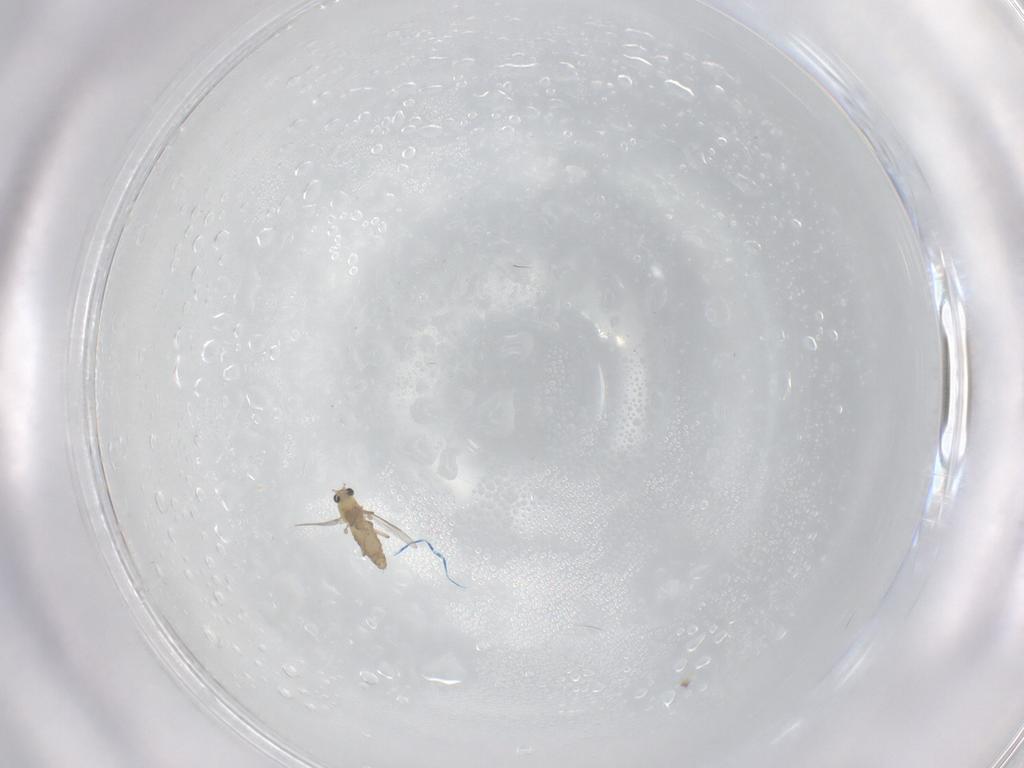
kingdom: Animalia
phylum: Arthropoda
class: Insecta
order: Diptera
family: Chironomidae
